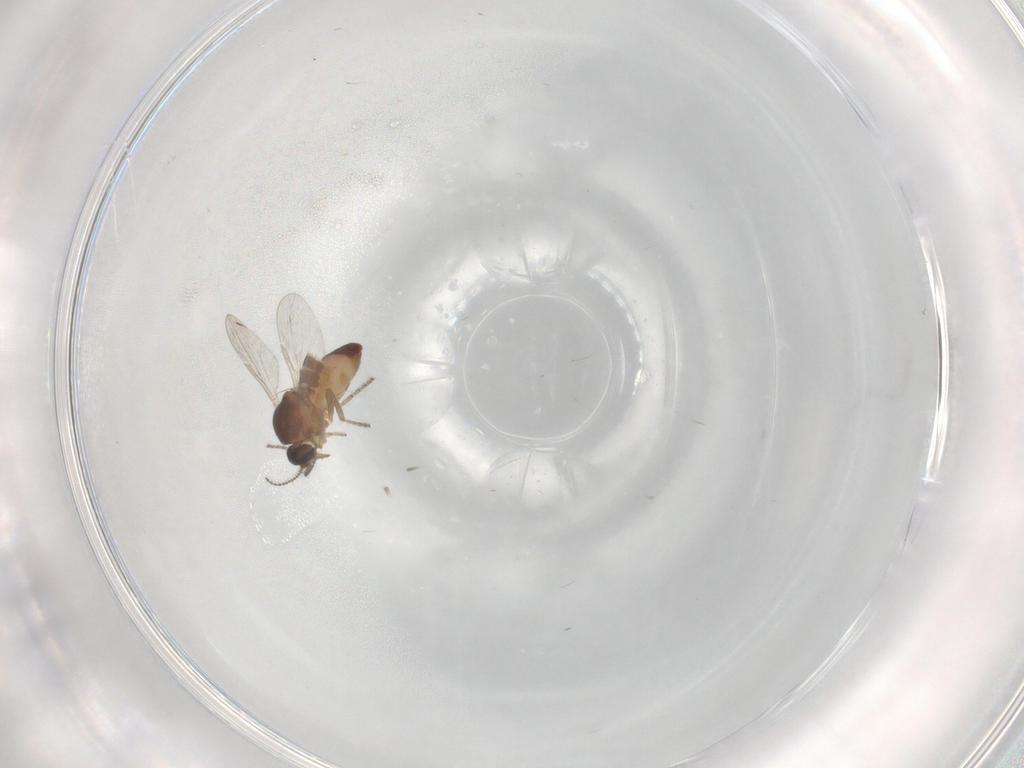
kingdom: Animalia
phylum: Arthropoda
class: Insecta
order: Diptera
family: Ceratopogonidae
